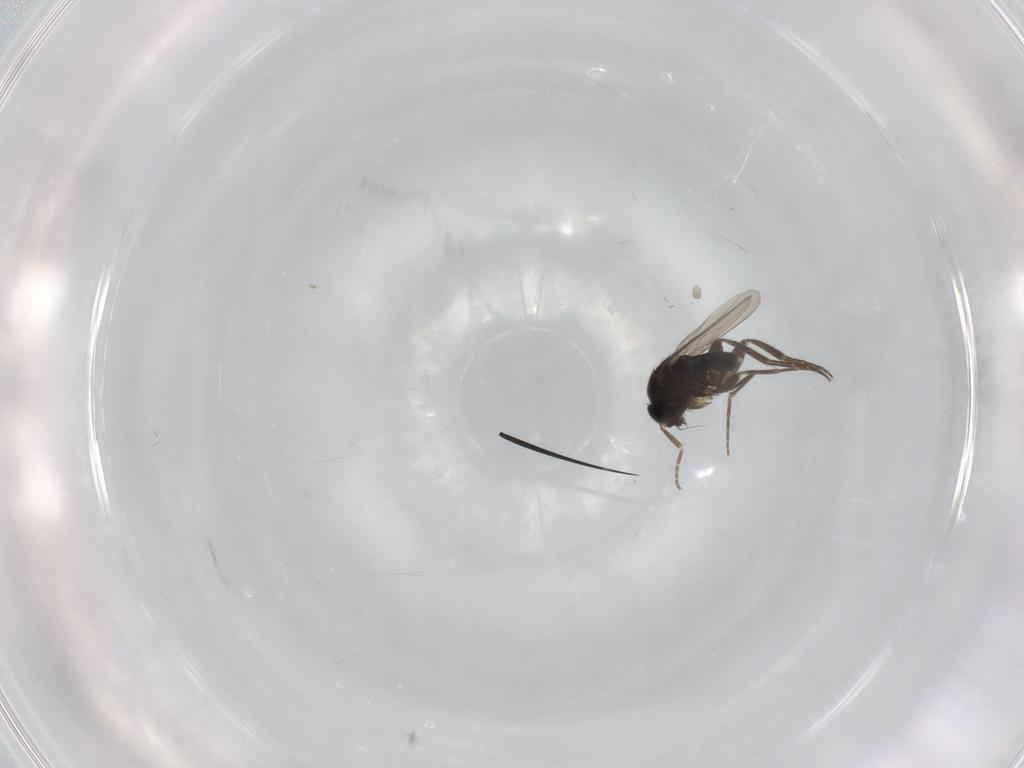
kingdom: Animalia
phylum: Arthropoda
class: Insecta
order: Diptera
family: Phoridae
